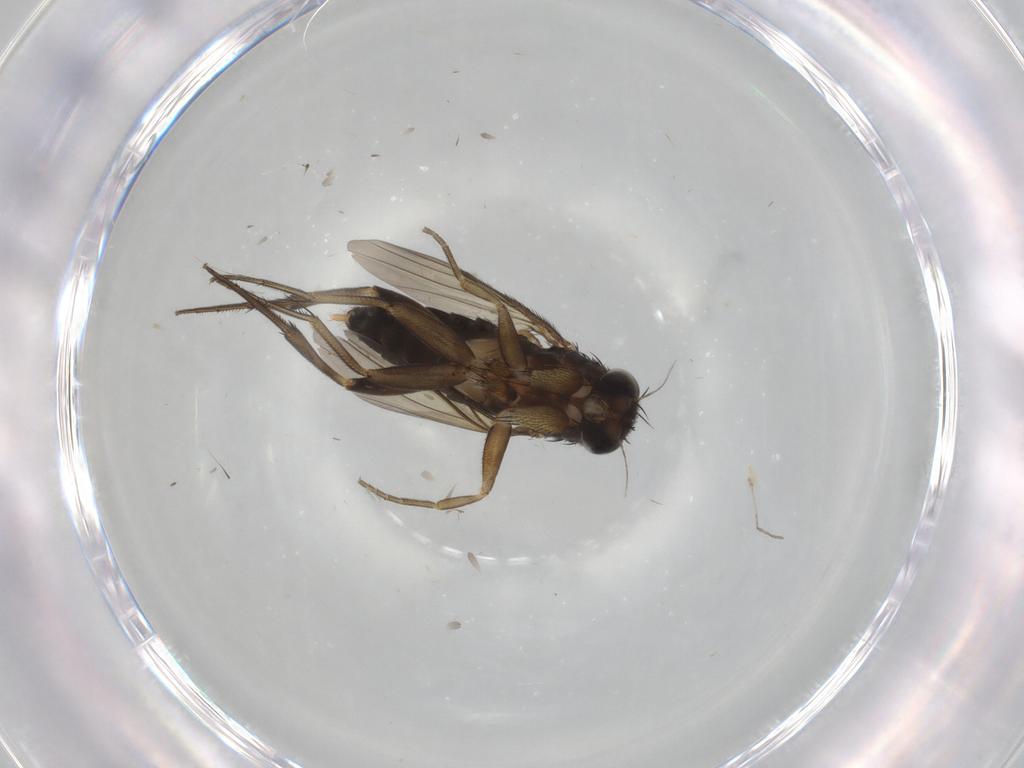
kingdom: Animalia
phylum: Arthropoda
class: Insecta
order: Diptera
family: Phoridae
